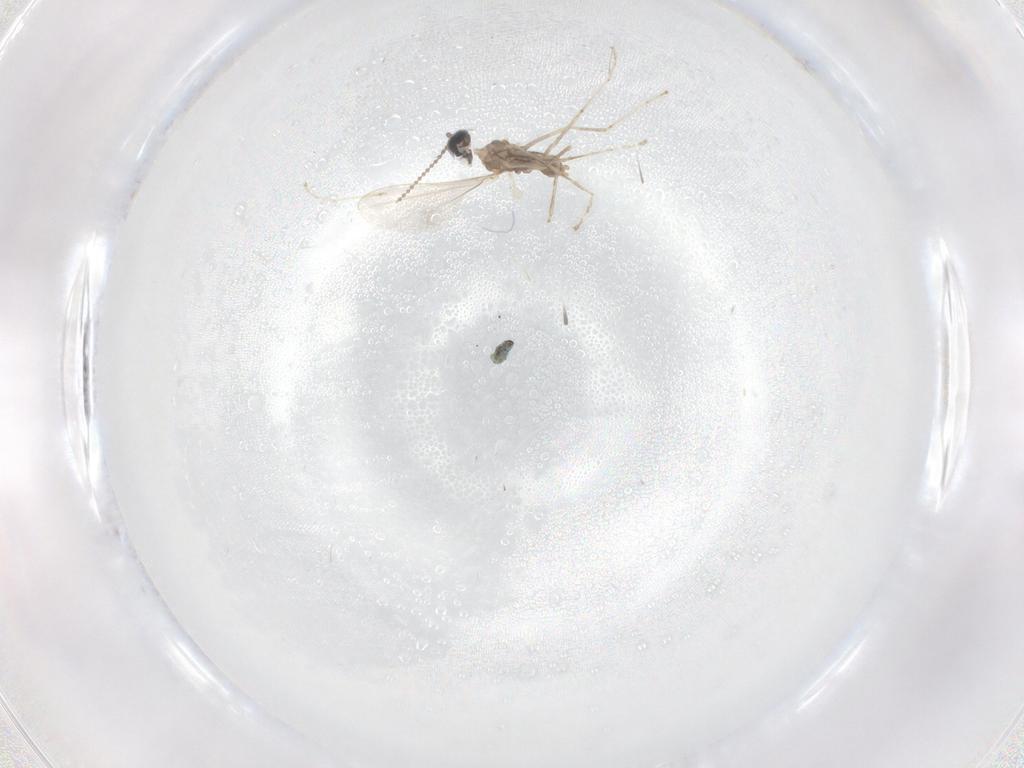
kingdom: Animalia
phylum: Arthropoda
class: Insecta
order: Diptera
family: Cecidomyiidae
